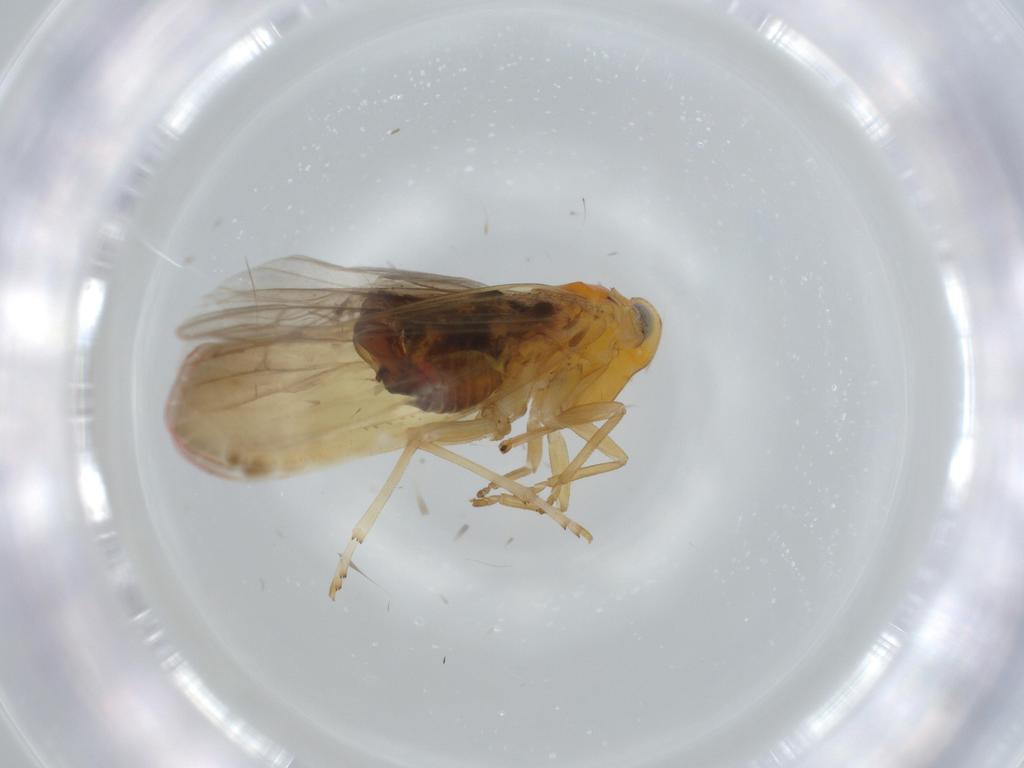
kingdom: Animalia
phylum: Arthropoda
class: Insecta
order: Hemiptera
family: Derbidae
